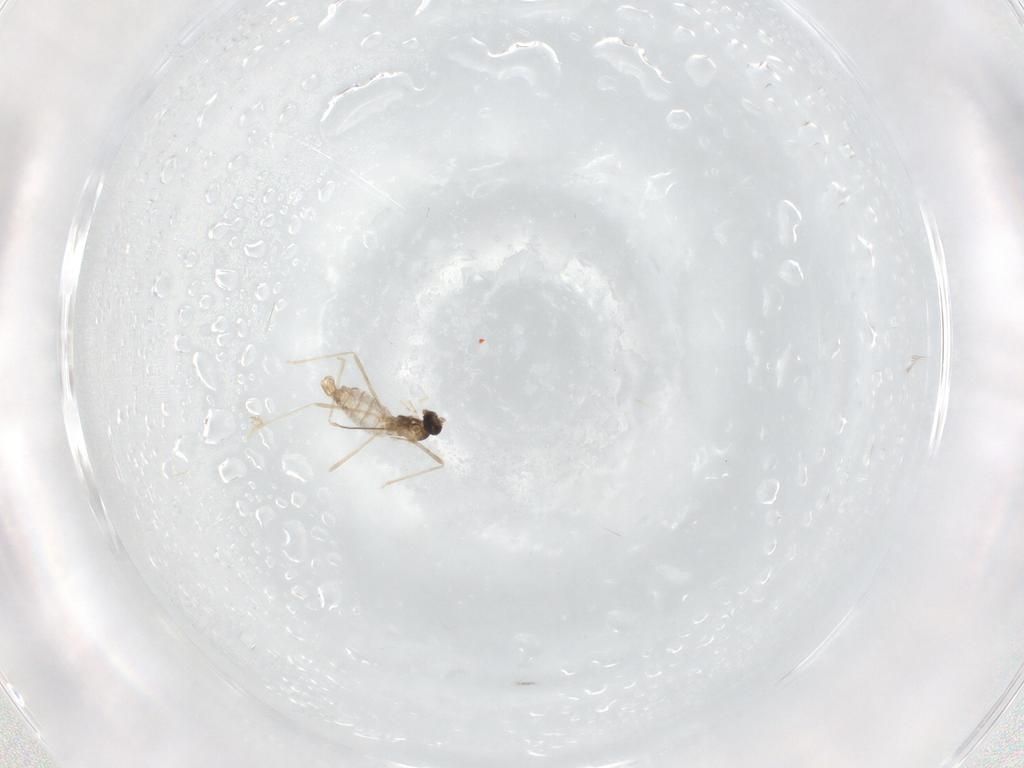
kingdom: Animalia
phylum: Arthropoda
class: Insecta
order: Diptera
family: Cecidomyiidae
